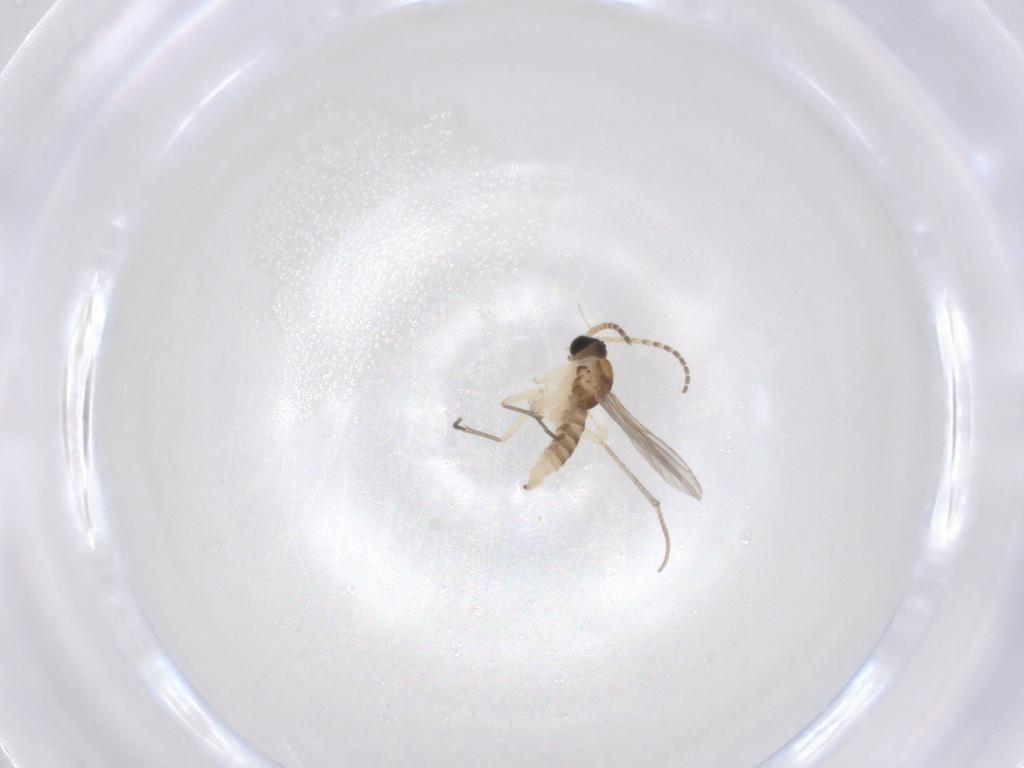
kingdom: Animalia
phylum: Arthropoda
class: Insecta
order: Diptera
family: Sciaridae
